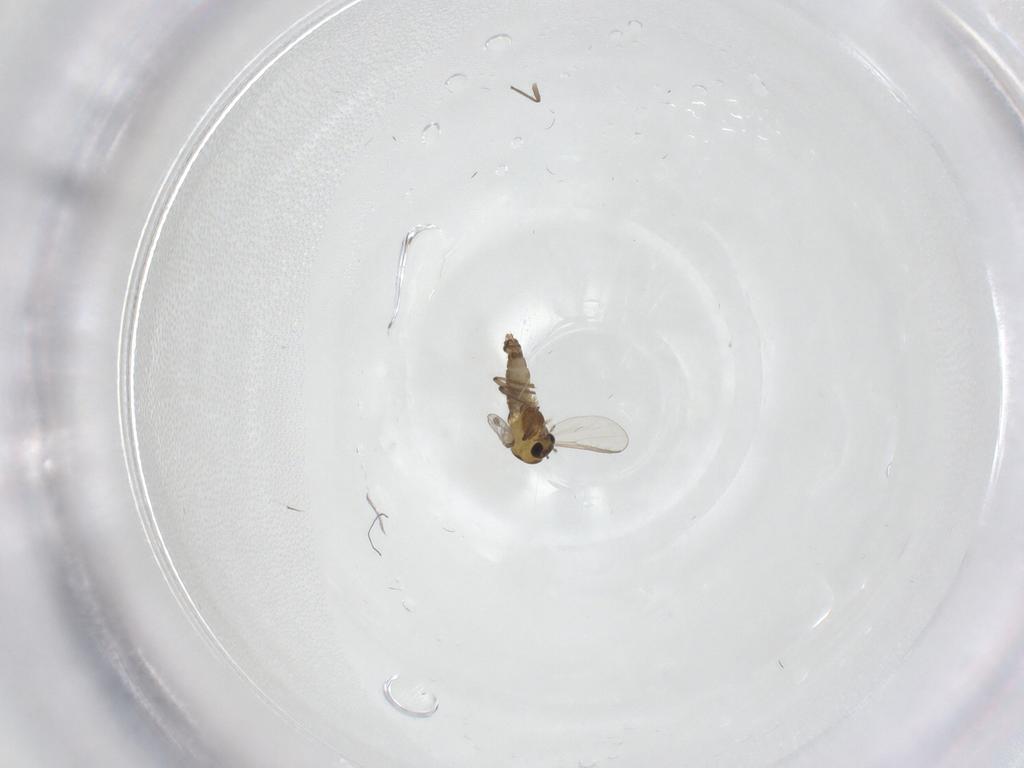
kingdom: Animalia
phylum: Arthropoda
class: Insecta
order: Diptera
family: Chironomidae
